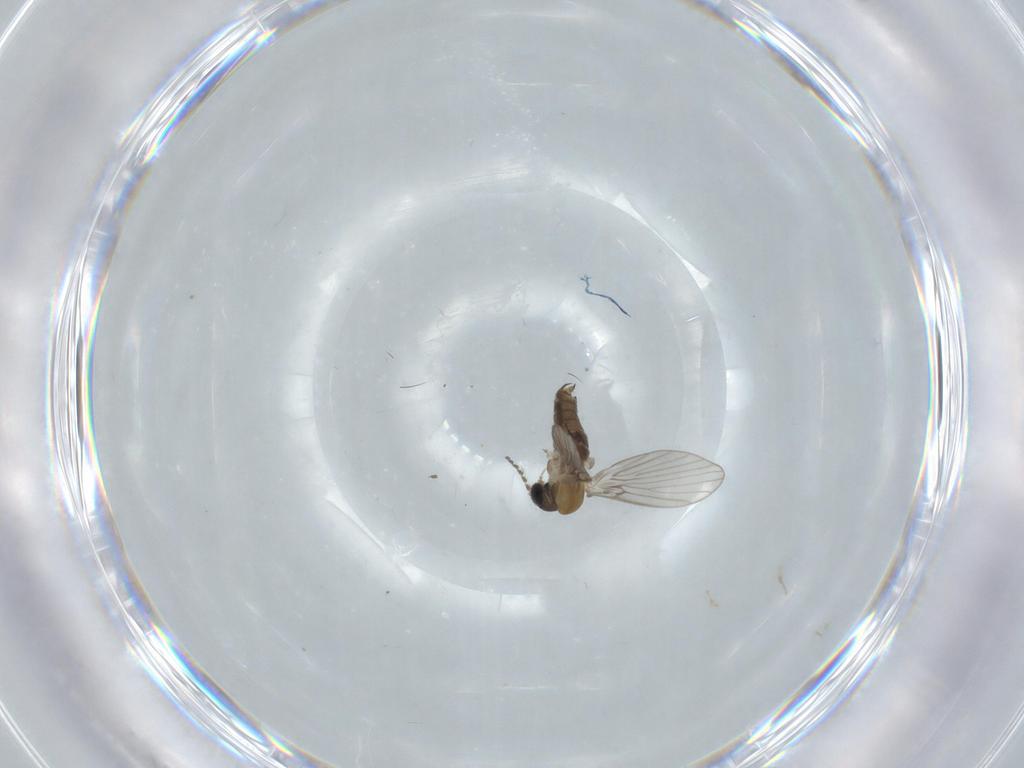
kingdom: Animalia
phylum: Arthropoda
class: Insecta
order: Diptera
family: Psychodidae
